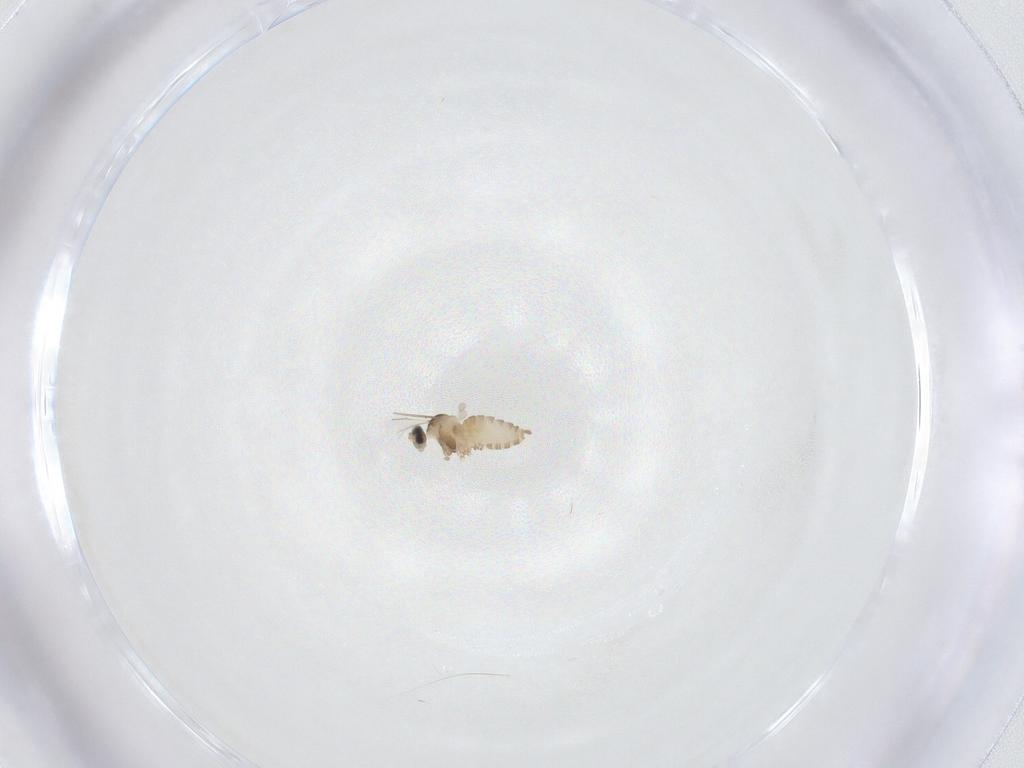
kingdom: Animalia
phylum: Arthropoda
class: Insecta
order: Diptera
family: Cecidomyiidae
